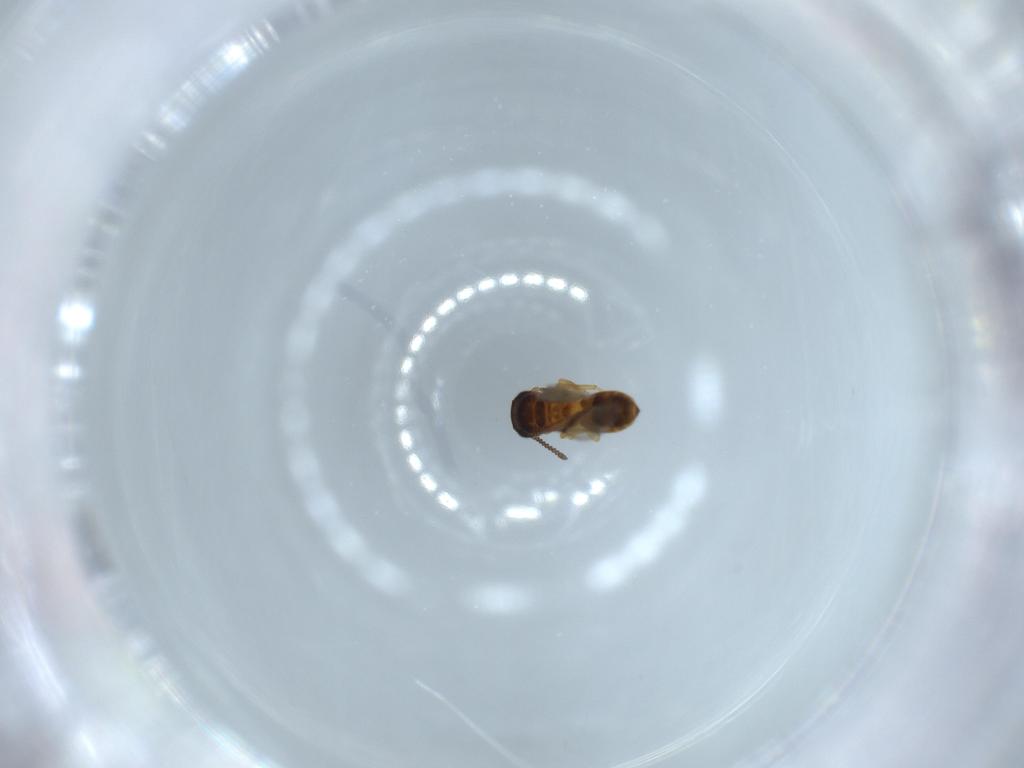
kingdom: Animalia
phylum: Arthropoda
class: Insecta
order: Hymenoptera
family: Scelionidae
